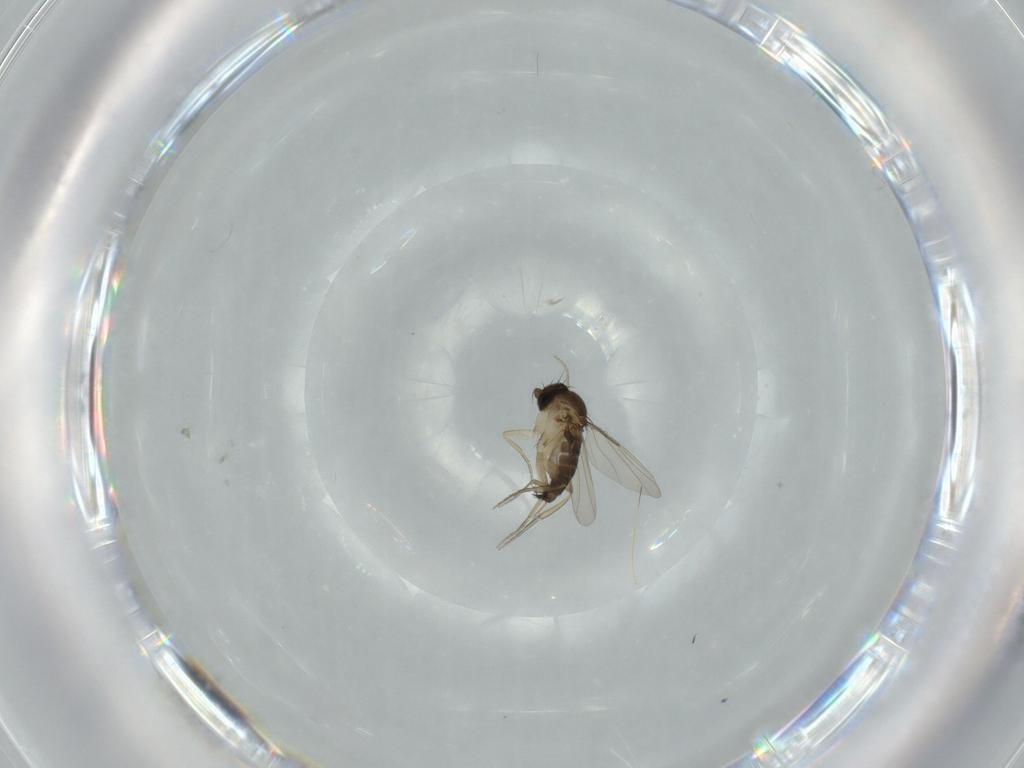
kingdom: Animalia
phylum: Arthropoda
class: Insecta
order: Diptera
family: Phoridae
